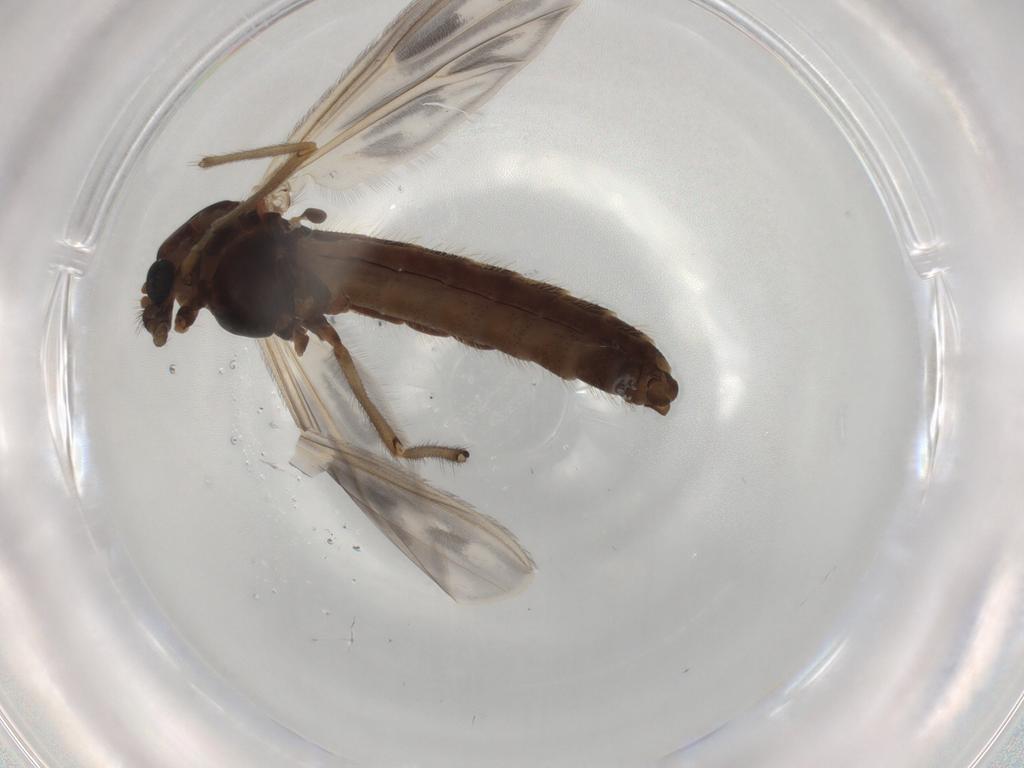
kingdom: Animalia
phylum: Arthropoda
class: Insecta
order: Diptera
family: Chironomidae
